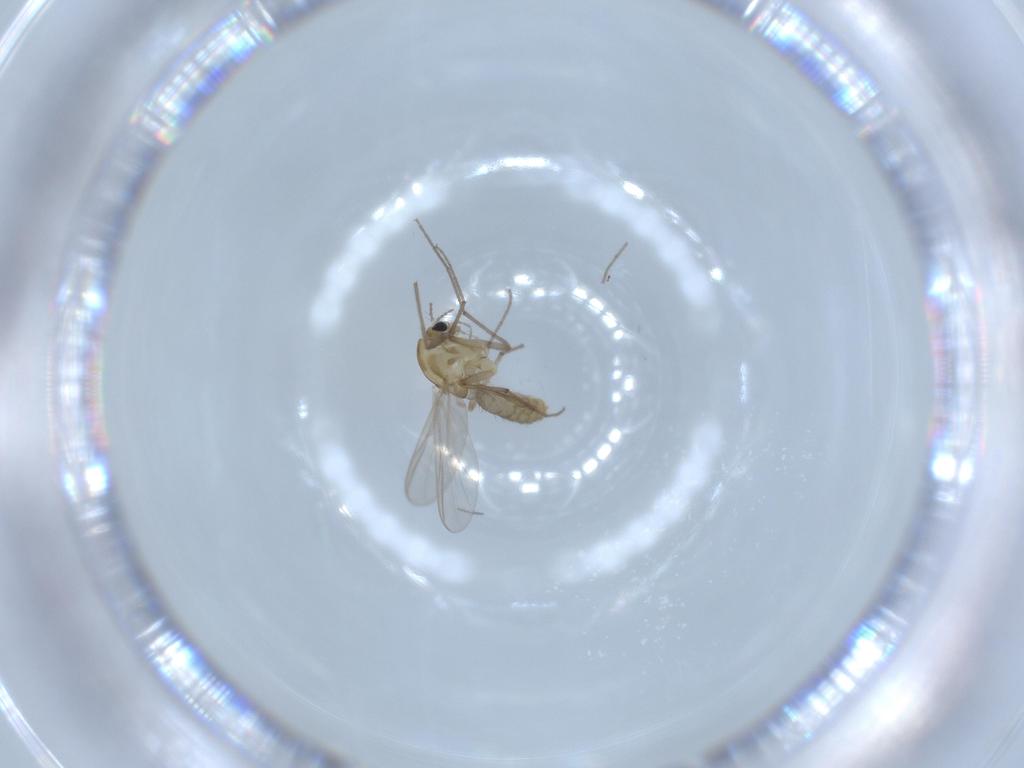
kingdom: Animalia
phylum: Arthropoda
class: Insecta
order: Diptera
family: Chironomidae
